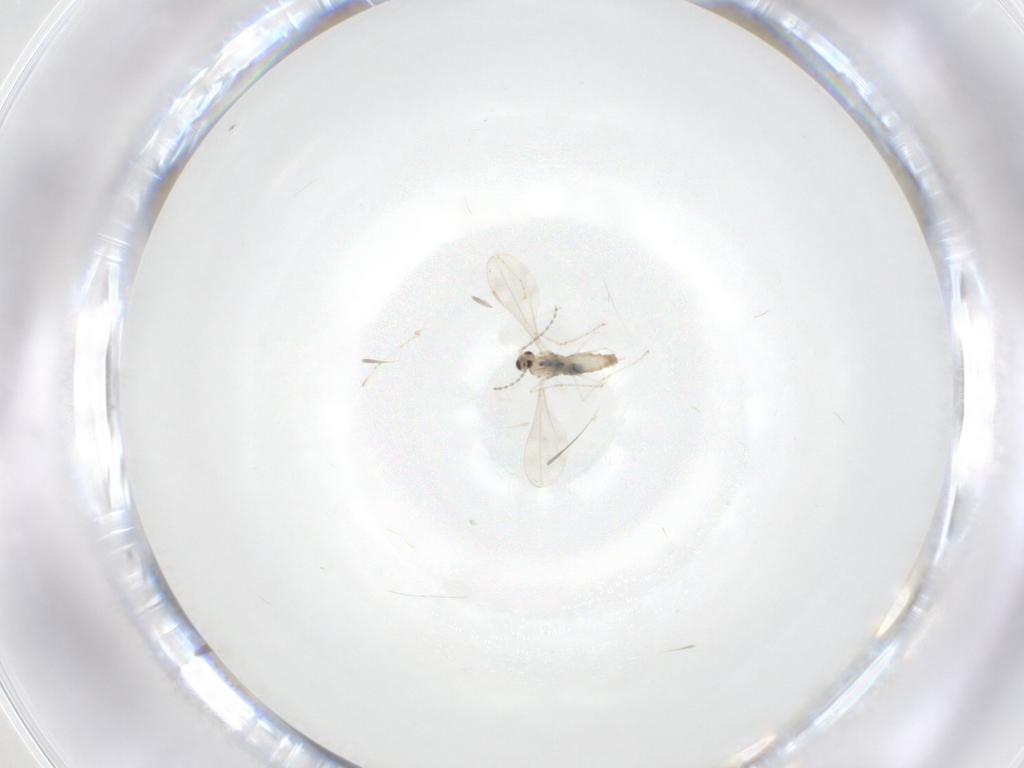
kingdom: Animalia
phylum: Arthropoda
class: Insecta
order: Diptera
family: Cecidomyiidae
